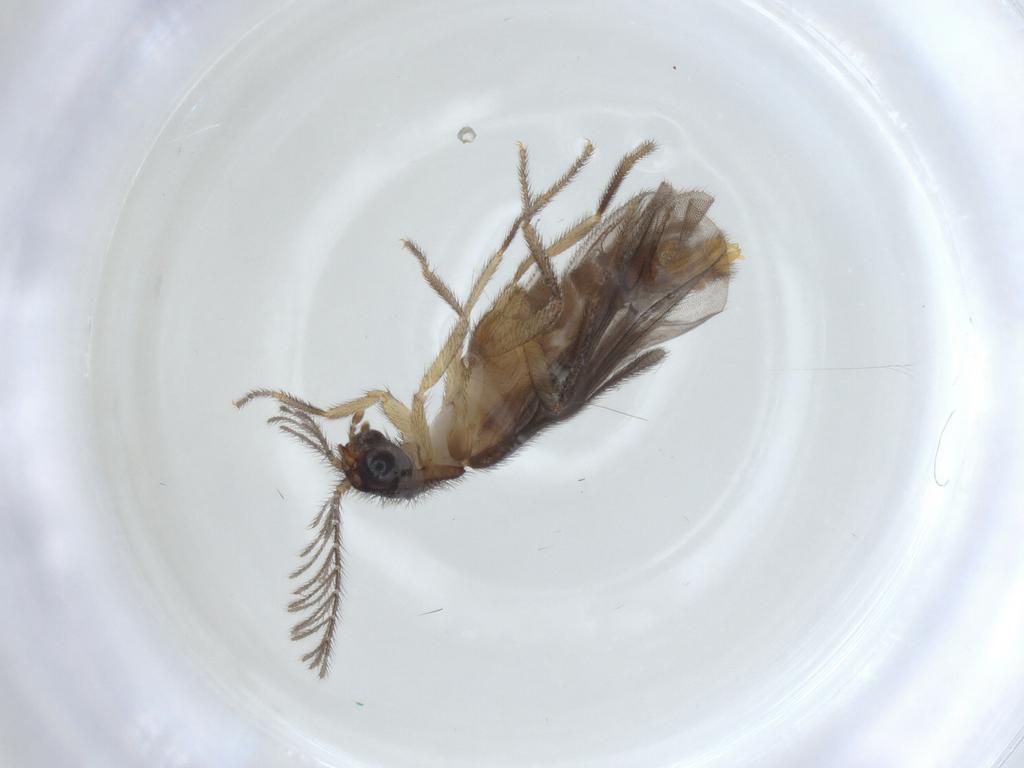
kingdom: Animalia
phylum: Arthropoda
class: Insecta
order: Coleoptera
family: Phengodidae
